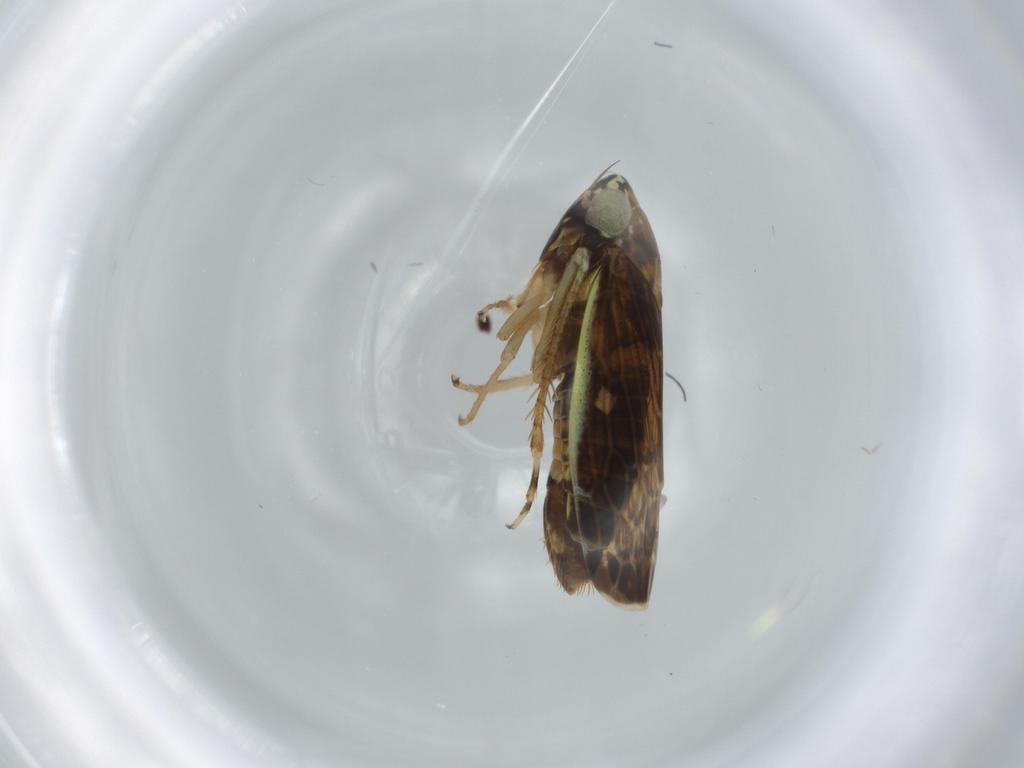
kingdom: Animalia
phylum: Arthropoda
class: Insecta
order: Hemiptera
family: Cicadellidae
